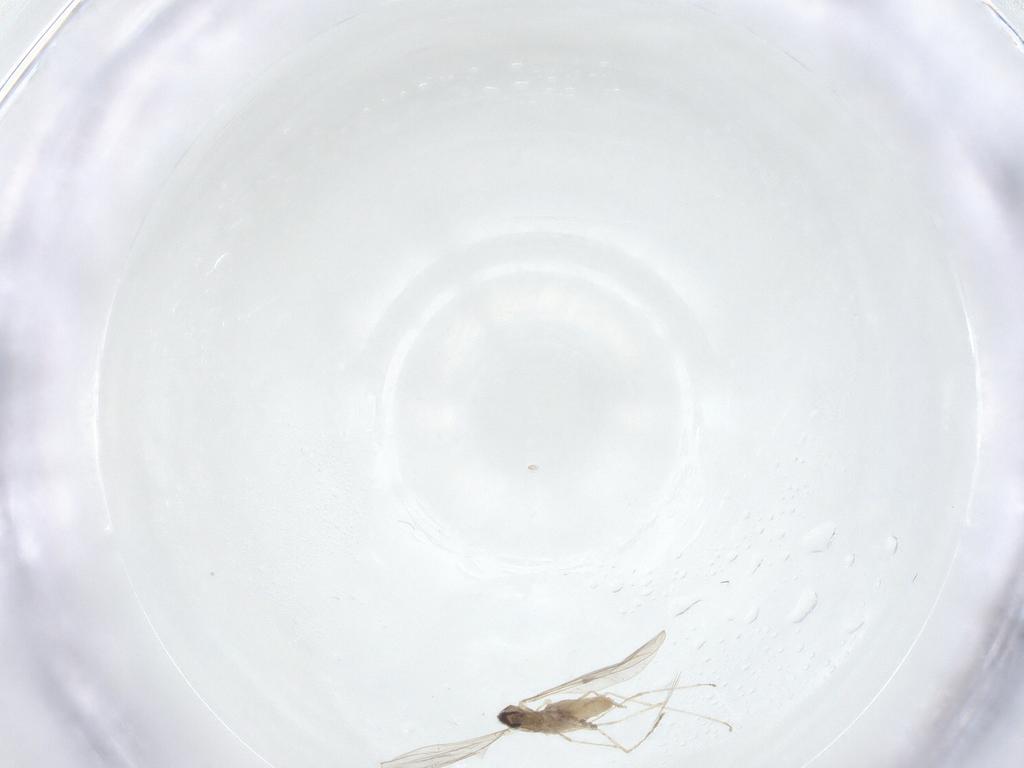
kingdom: Animalia
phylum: Arthropoda
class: Insecta
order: Diptera
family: Cecidomyiidae
